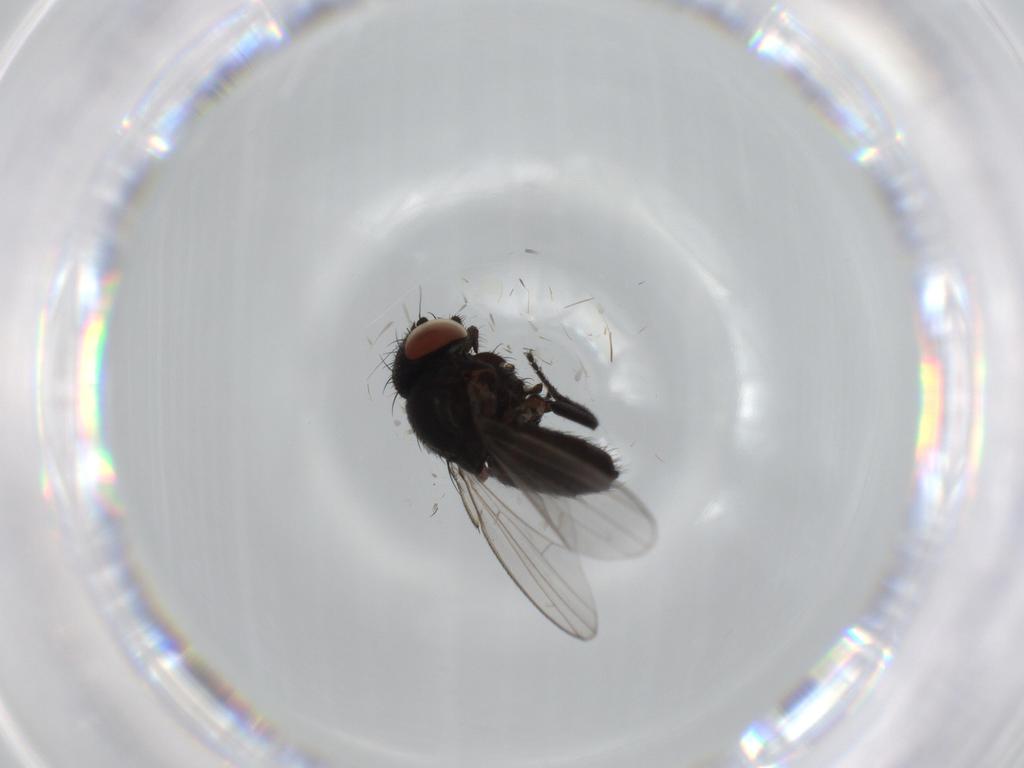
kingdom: Animalia
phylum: Arthropoda
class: Insecta
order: Diptera
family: Milichiidae
